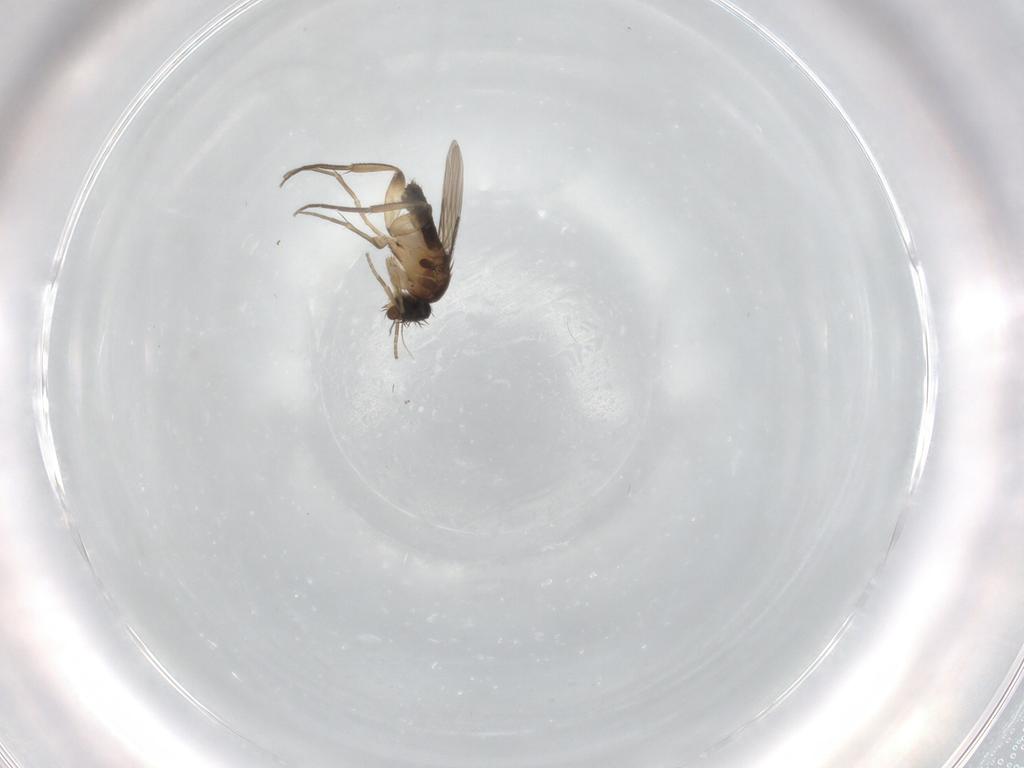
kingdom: Animalia
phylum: Arthropoda
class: Insecta
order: Diptera
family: Phoridae
